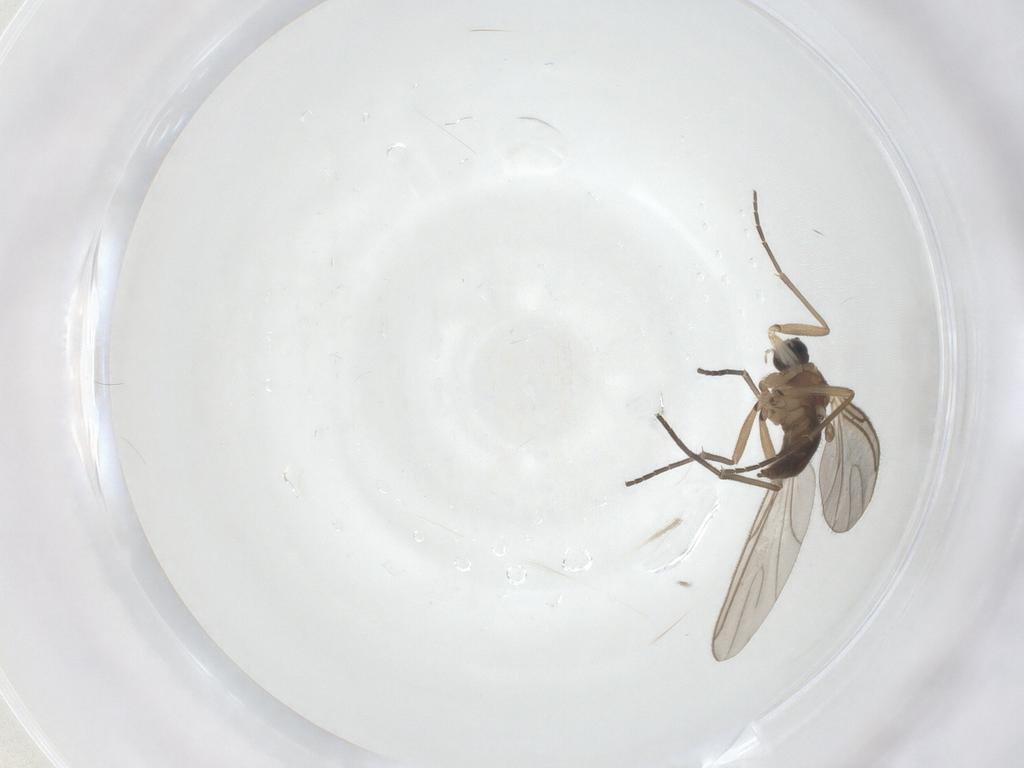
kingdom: Animalia
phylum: Arthropoda
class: Insecta
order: Diptera
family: Sciaridae
